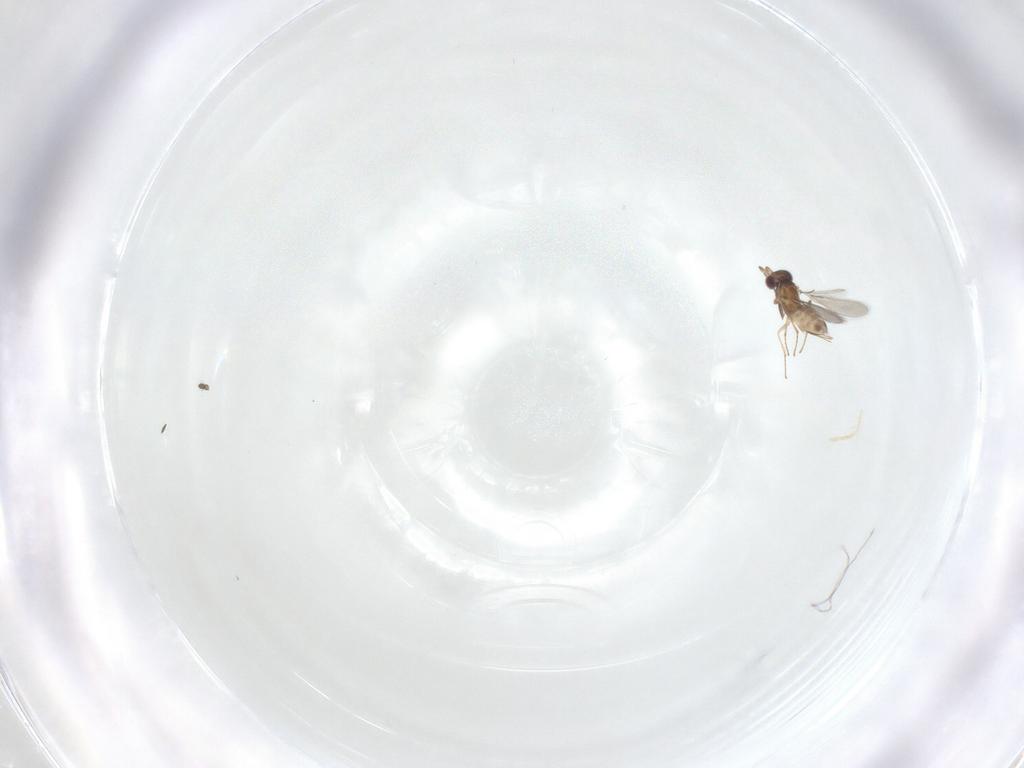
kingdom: Animalia
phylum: Arthropoda
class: Insecta
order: Hymenoptera
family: Mymaridae
